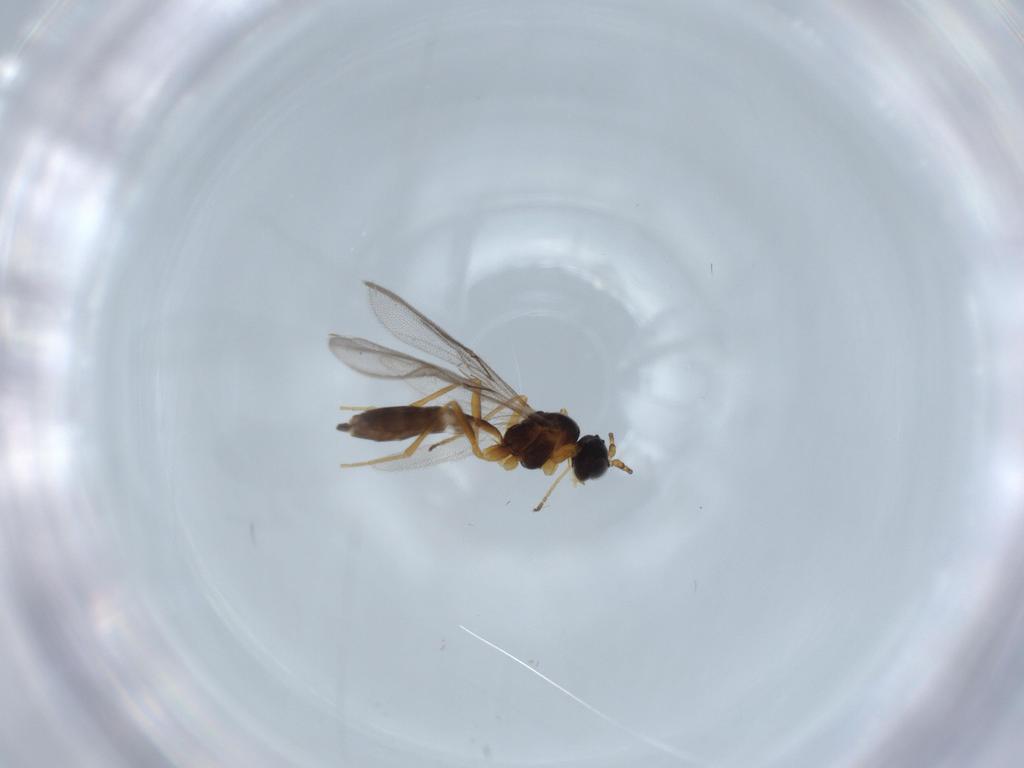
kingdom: Animalia
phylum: Arthropoda
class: Insecta
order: Hymenoptera
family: Braconidae
